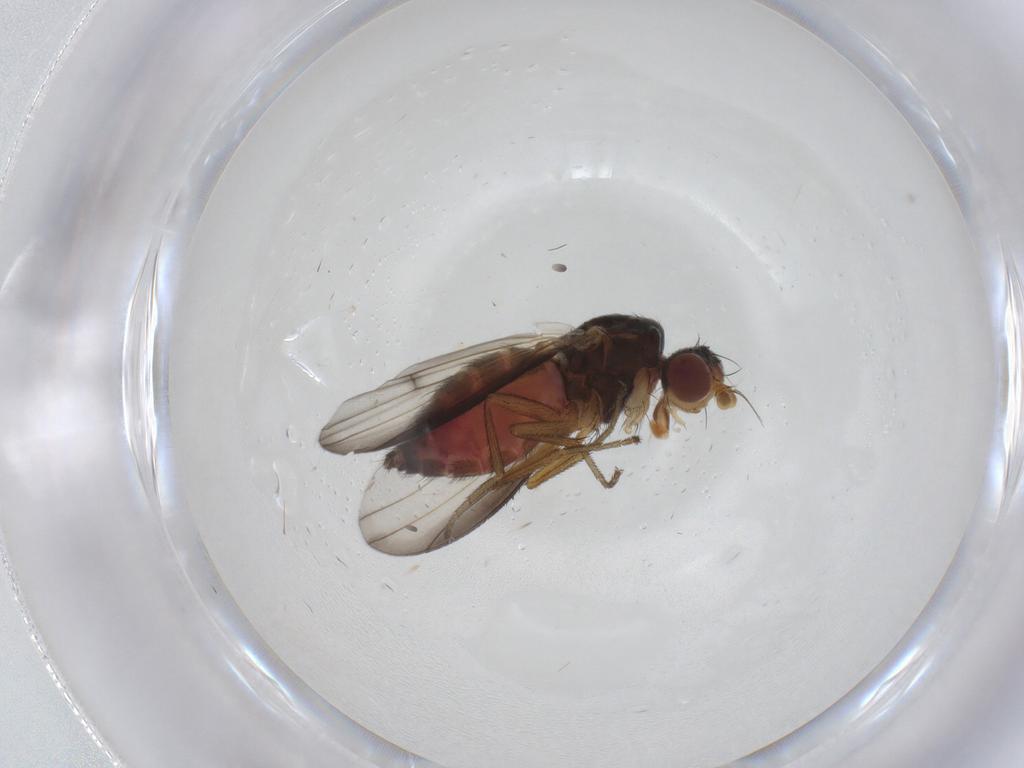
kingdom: Animalia
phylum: Arthropoda
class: Insecta
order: Diptera
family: Heleomyzidae
